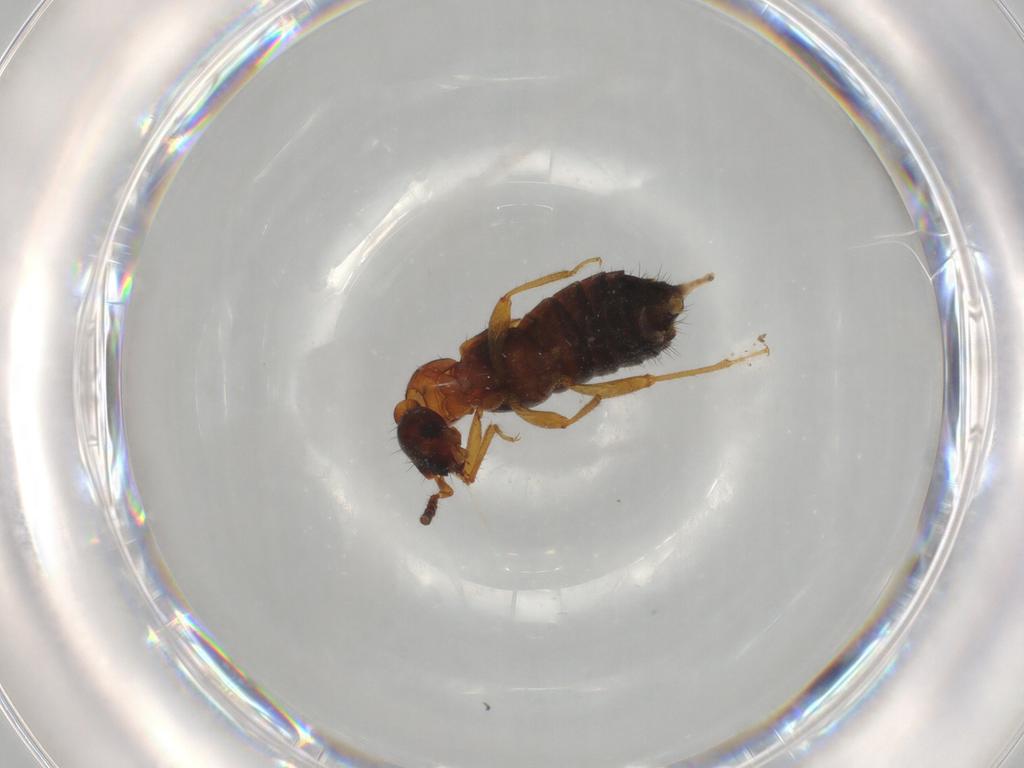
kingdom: Animalia
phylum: Arthropoda
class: Insecta
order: Coleoptera
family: Staphylinidae
